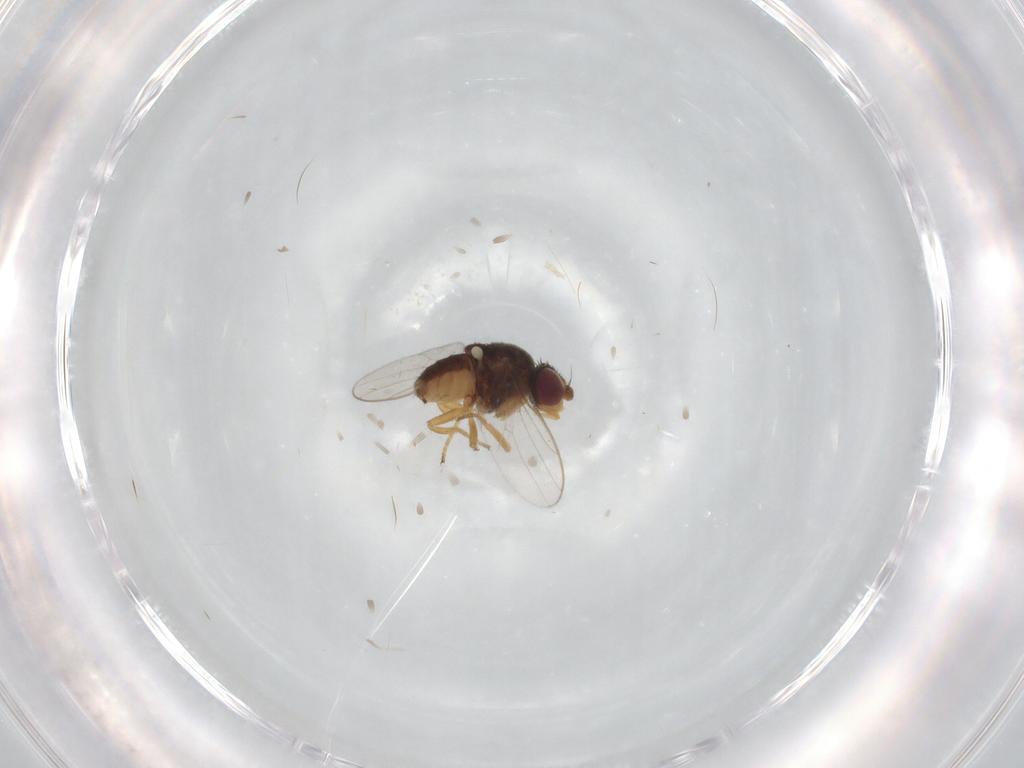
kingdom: Animalia
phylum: Arthropoda
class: Insecta
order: Diptera
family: Chloropidae
